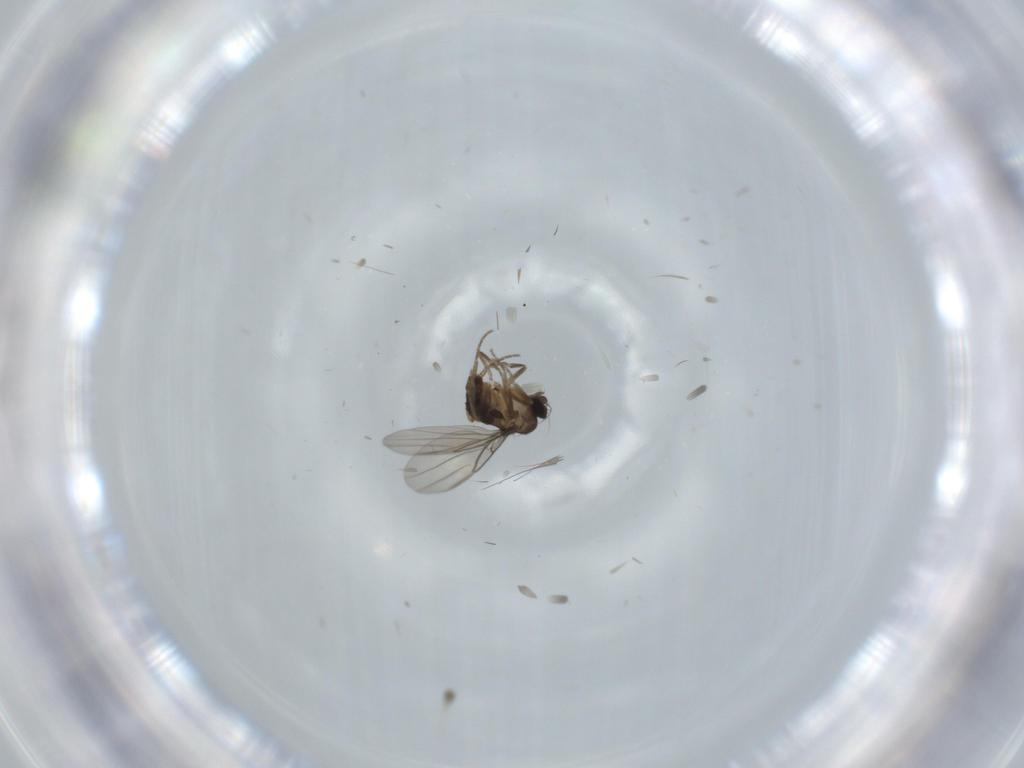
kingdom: Animalia
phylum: Arthropoda
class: Insecta
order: Diptera
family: Phoridae
